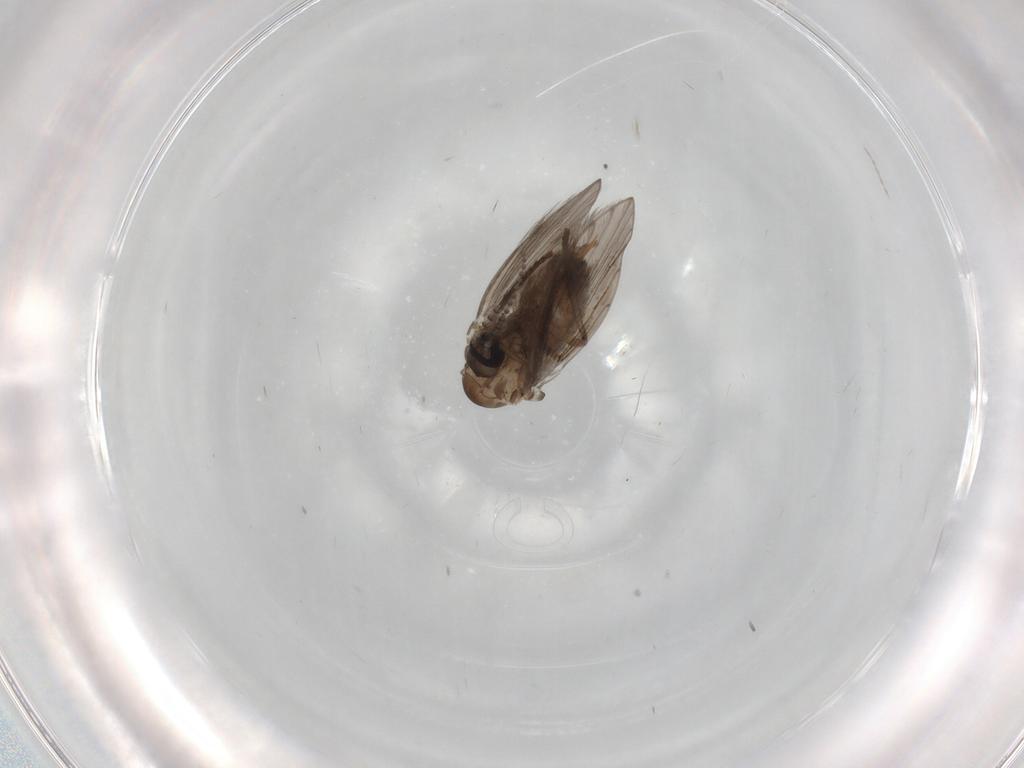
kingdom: Animalia
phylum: Arthropoda
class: Insecta
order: Diptera
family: Psychodidae
